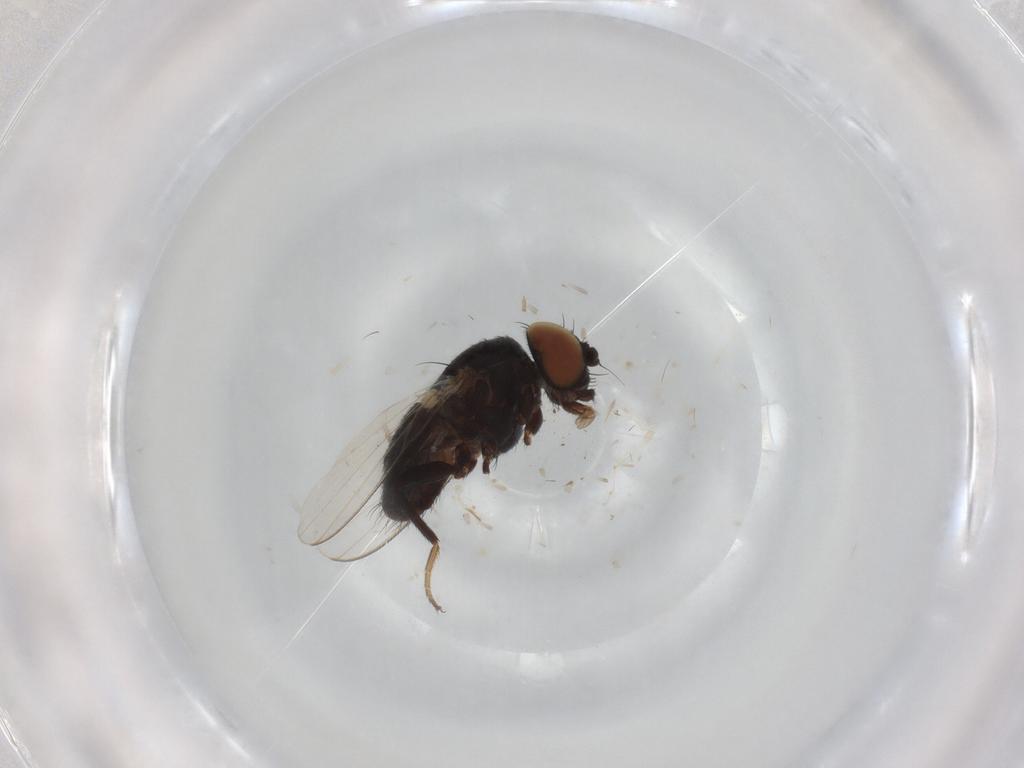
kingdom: Animalia
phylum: Arthropoda
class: Insecta
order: Diptera
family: Milichiidae
